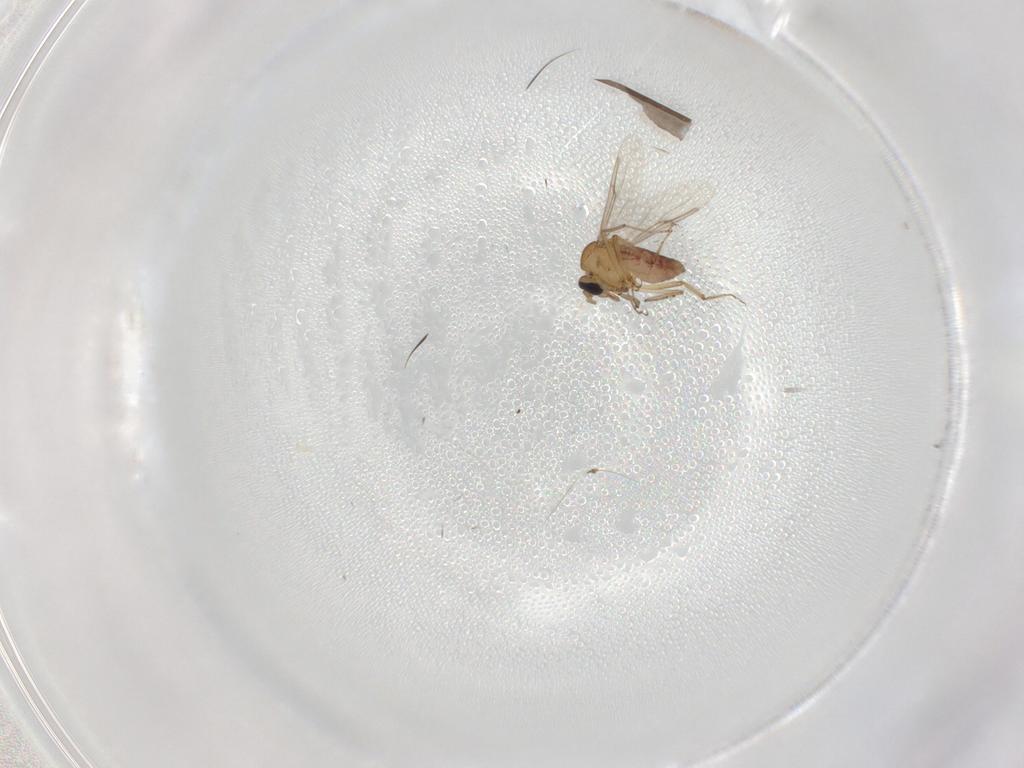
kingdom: Animalia
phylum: Arthropoda
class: Insecta
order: Diptera
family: Ceratopogonidae
